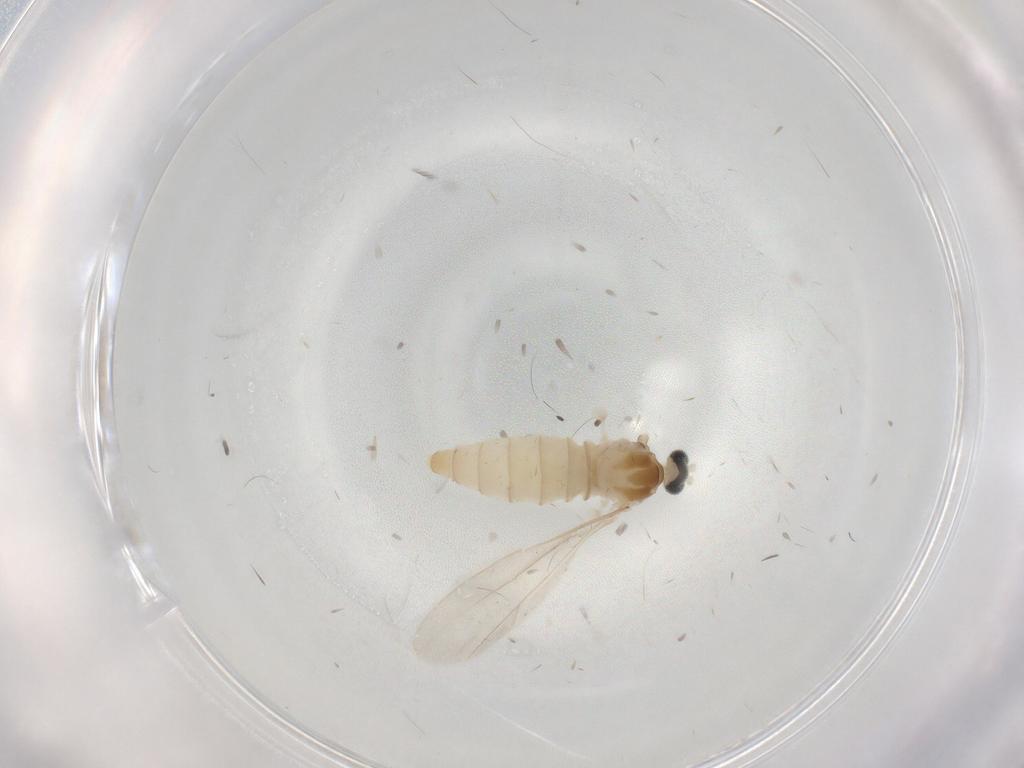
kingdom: Animalia
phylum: Arthropoda
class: Insecta
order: Diptera
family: Cecidomyiidae
